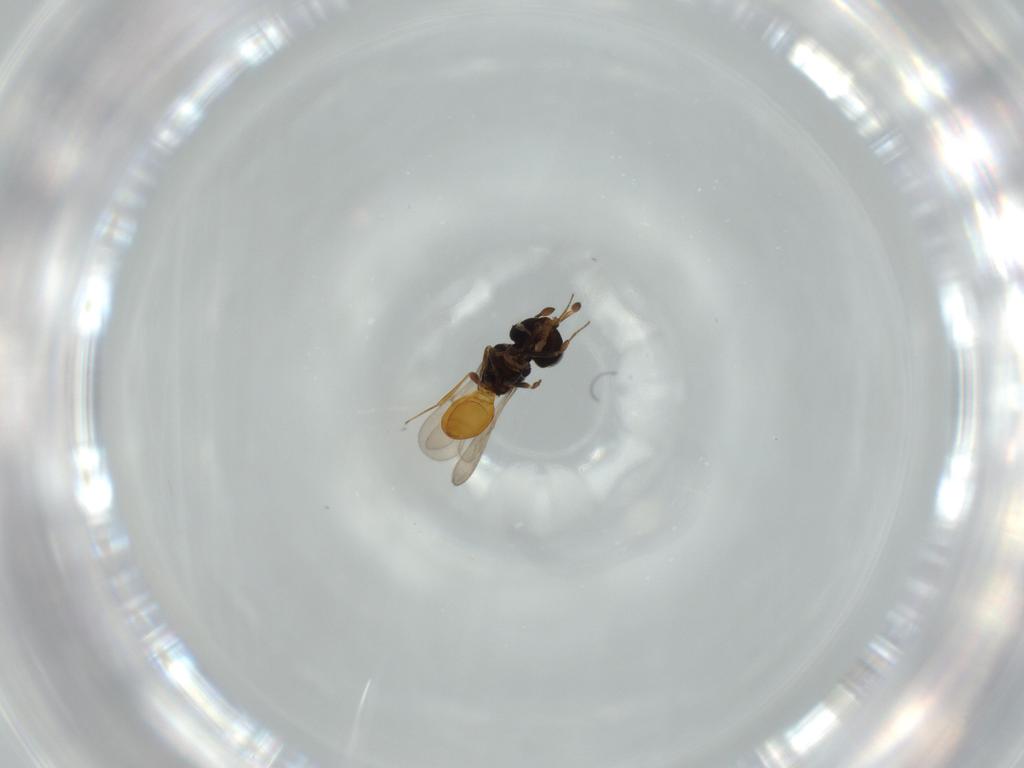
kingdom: Animalia
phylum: Arthropoda
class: Insecta
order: Hymenoptera
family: Scelionidae
